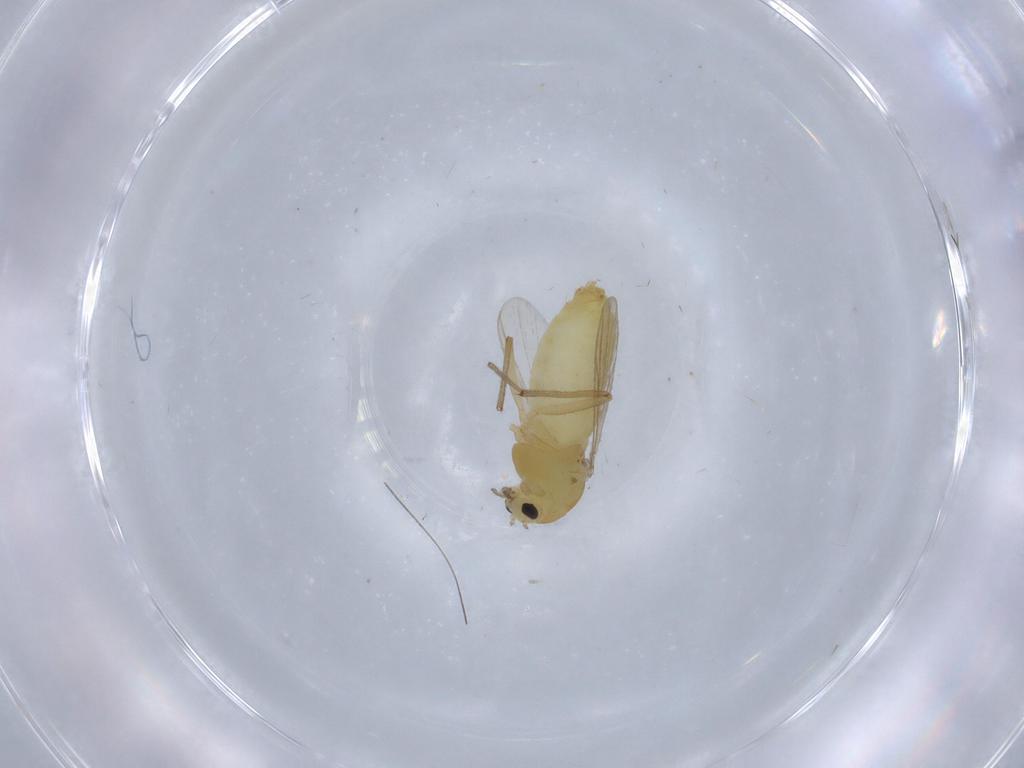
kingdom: Animalia
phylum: Arthropoda
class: Insecta
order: Diptera
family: Chironomidae
